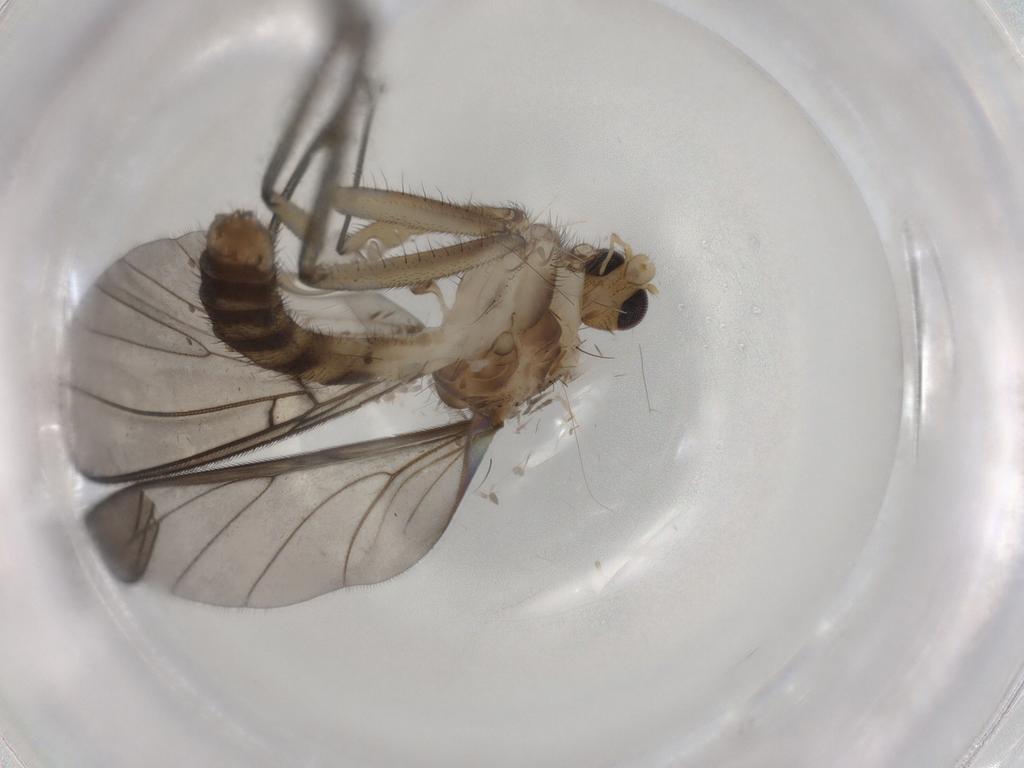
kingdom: Animalia
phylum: Arthropoda
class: Insecta
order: Diptera
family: Mycetophilidae
